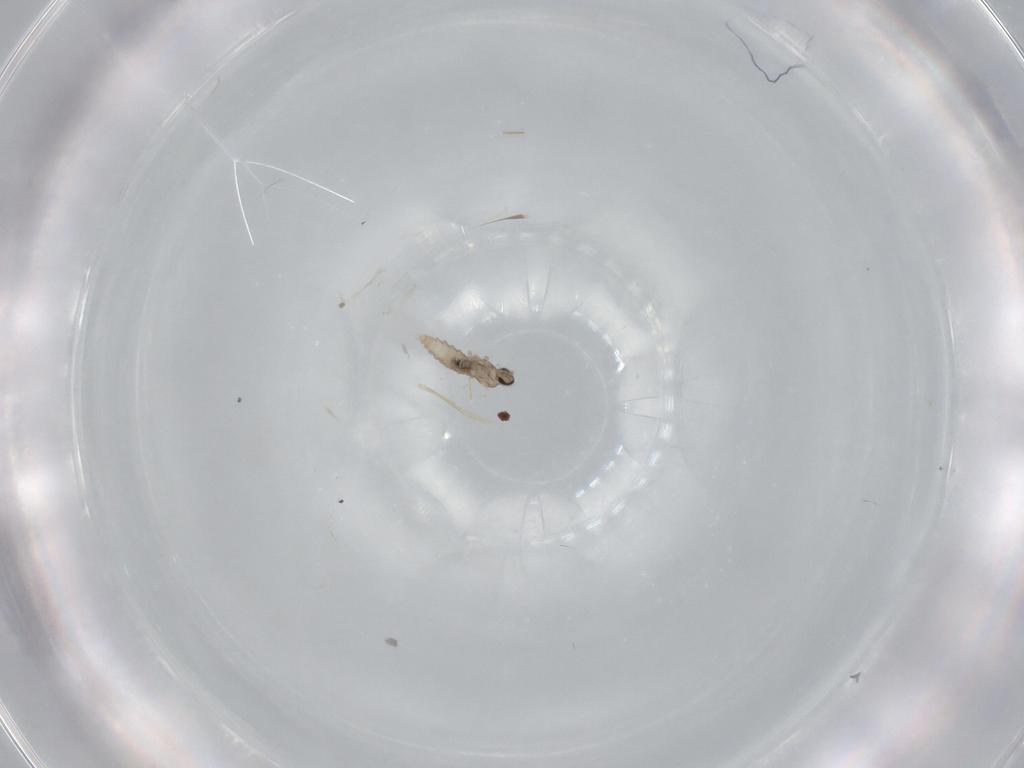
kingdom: Animalia
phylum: Arthropoda
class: Insecta
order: Diptera
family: Cecidomyiidae
